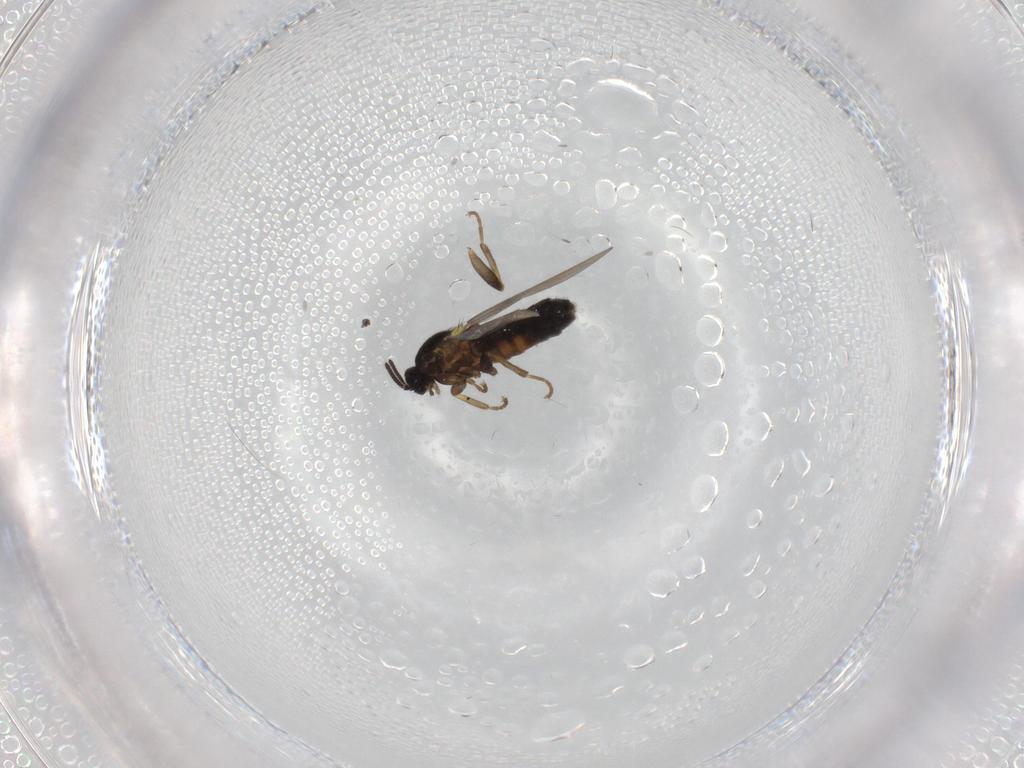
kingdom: Animalia
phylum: Arthropoda
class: Insecta
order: Diptera
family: Scatopsidae
